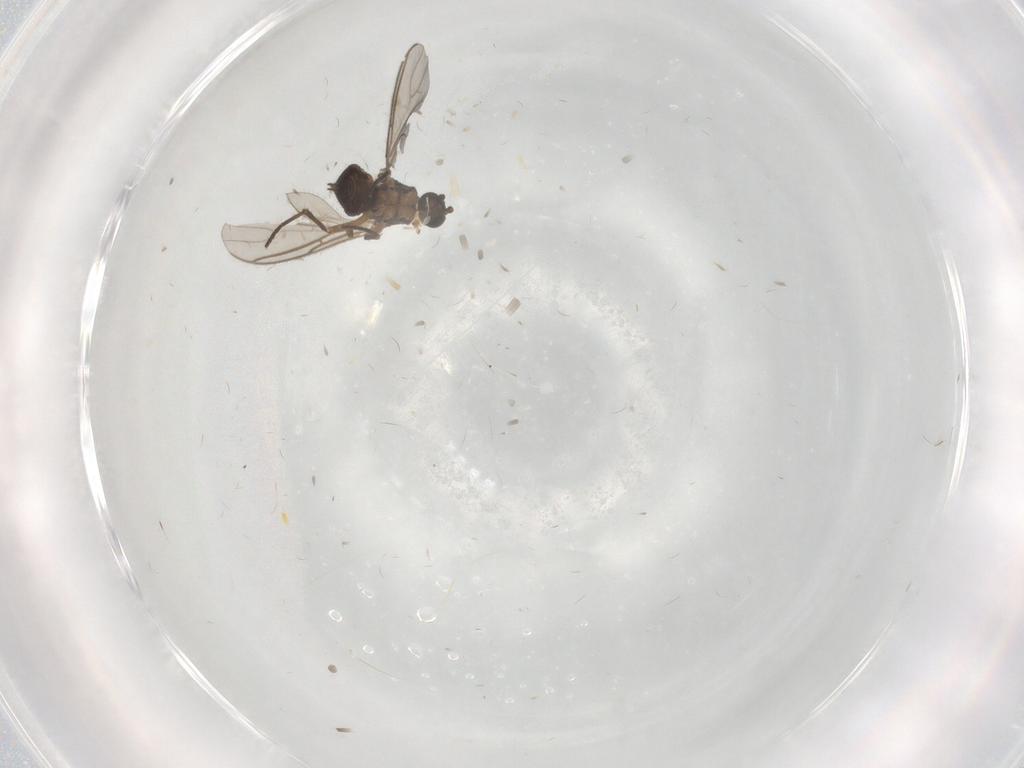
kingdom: Animalia
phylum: Arthropoda
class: Insecta
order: Diptera
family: Sciaridae
